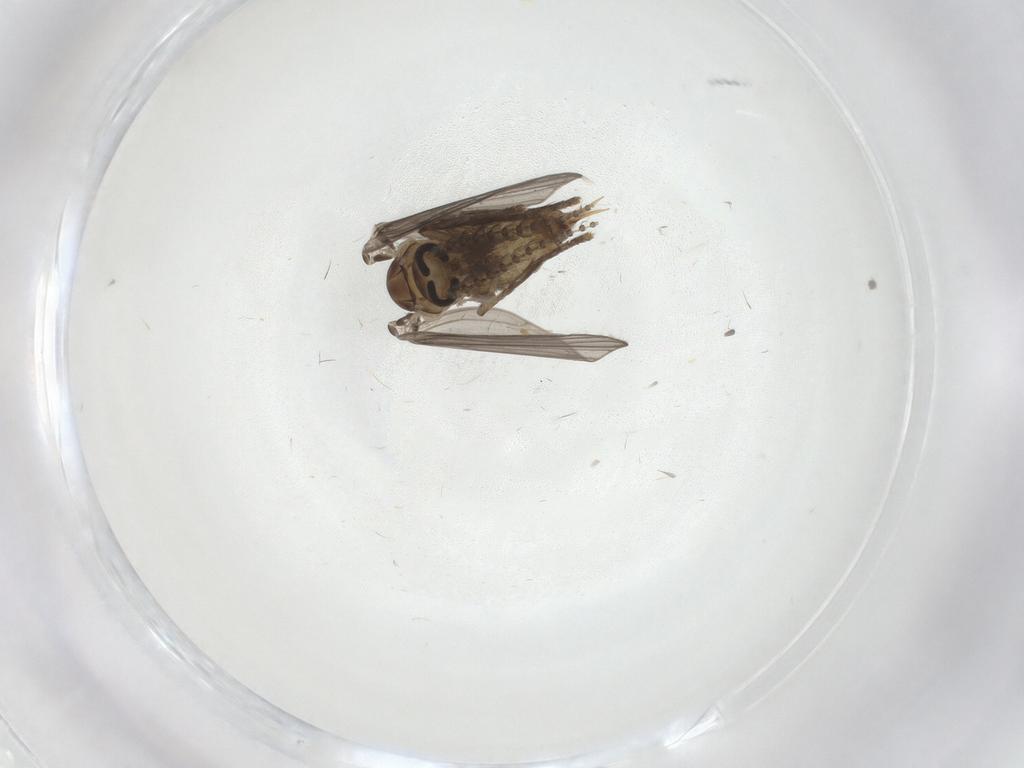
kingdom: Animalia
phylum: Arthropoda
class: Insecta
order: Diptera
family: Psychodidae
